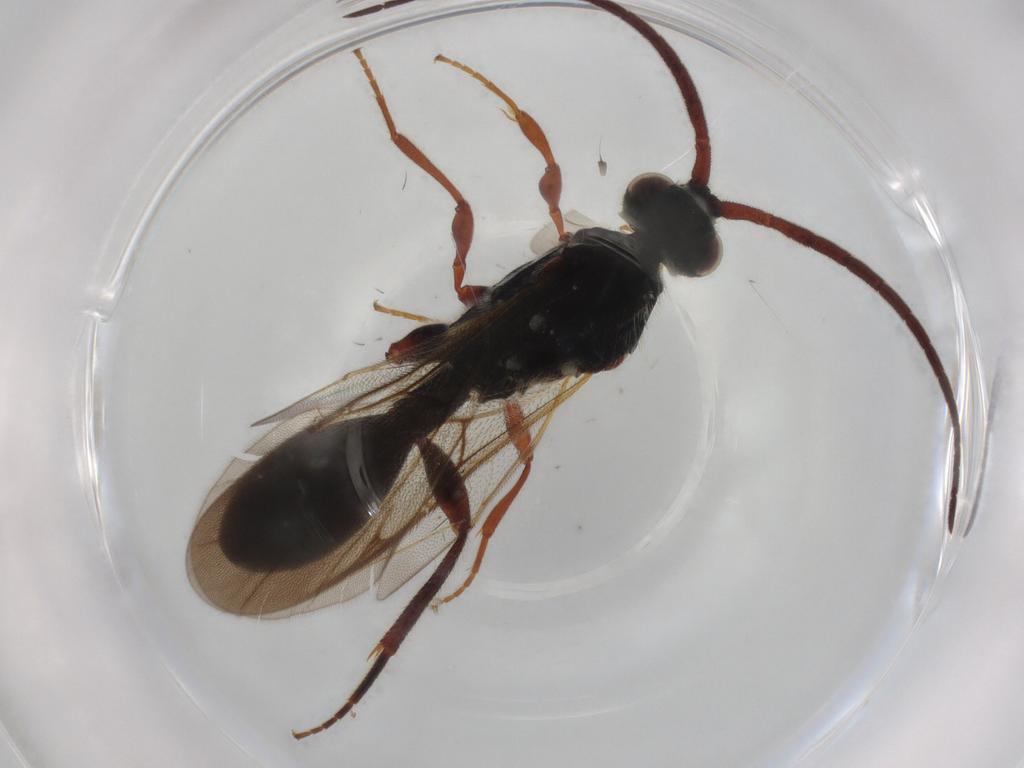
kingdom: Animalia
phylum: Arthropoda
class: Insecta
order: Hymenoptera
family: Diapriidae
